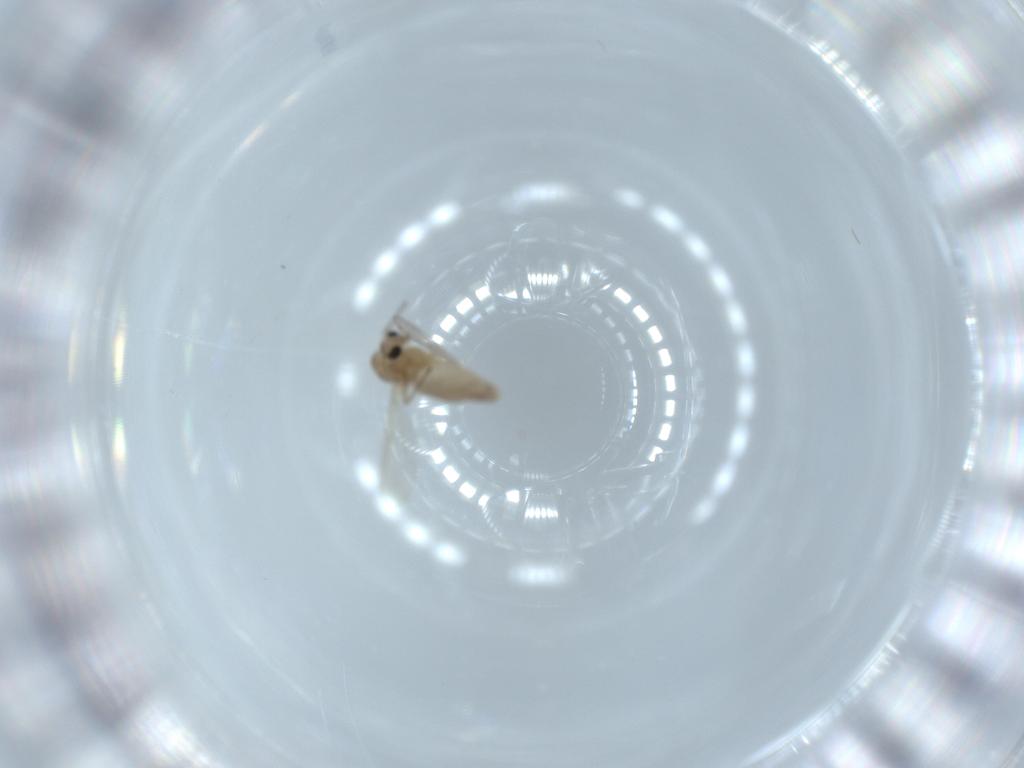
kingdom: Animalia
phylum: Arthropoda
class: Insecta
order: Diptera
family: Chironomidae
